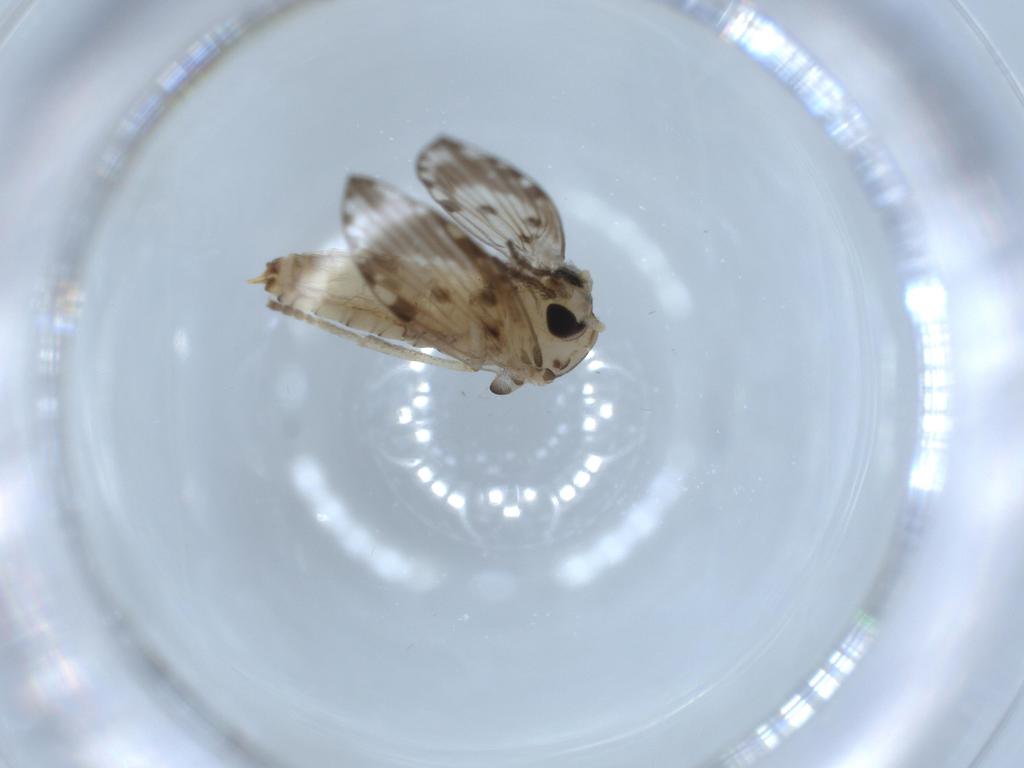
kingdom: Animalia
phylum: Arthropoda
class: Insecta
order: Diptera
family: Psychodidae
